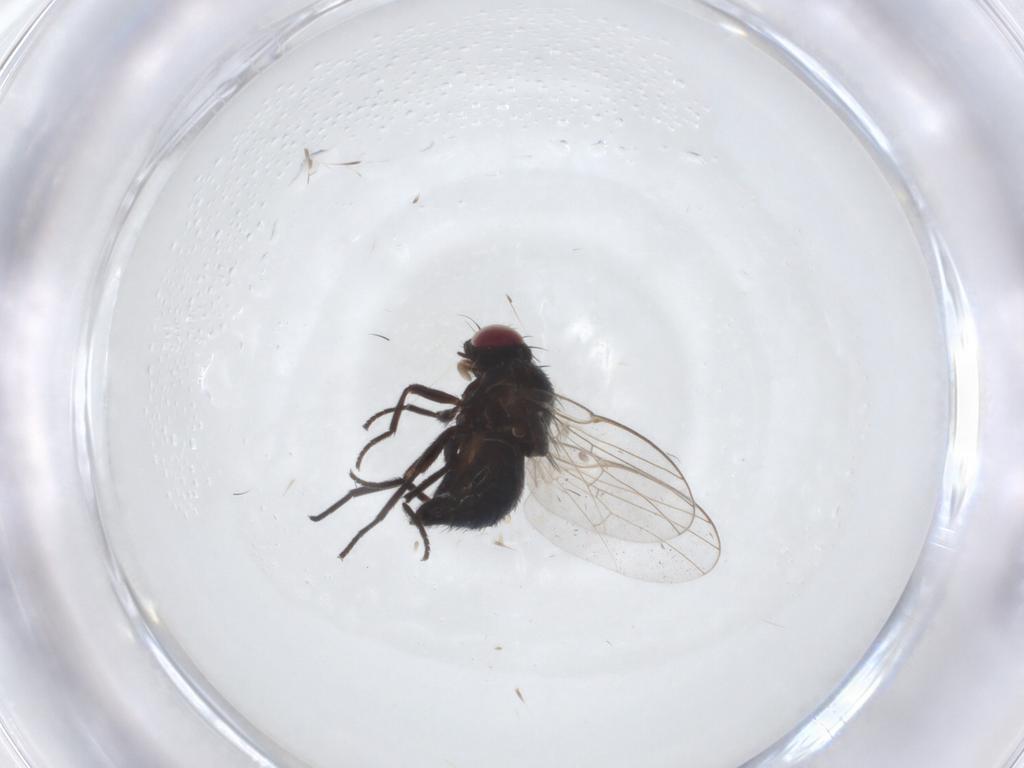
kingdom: Animalia
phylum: Arthropoda
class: Insecta
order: Diptera
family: Agromyzidae
